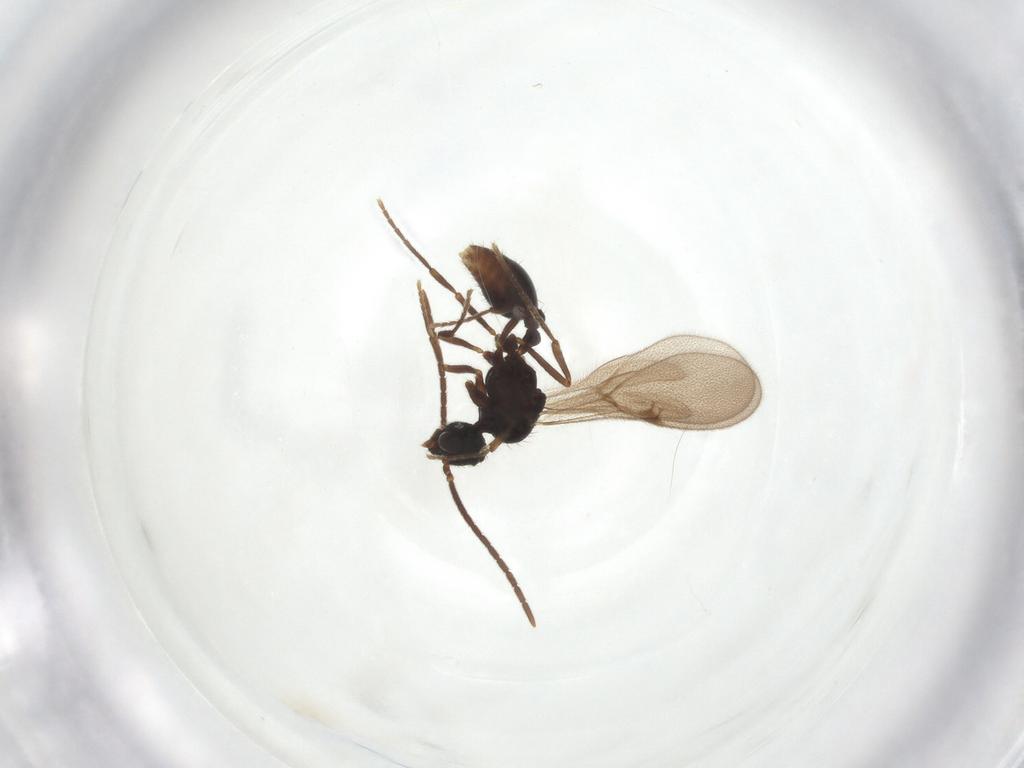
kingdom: Animalia
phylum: Arthropoda
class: Insecta
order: Hymenoptera
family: Formicidae
